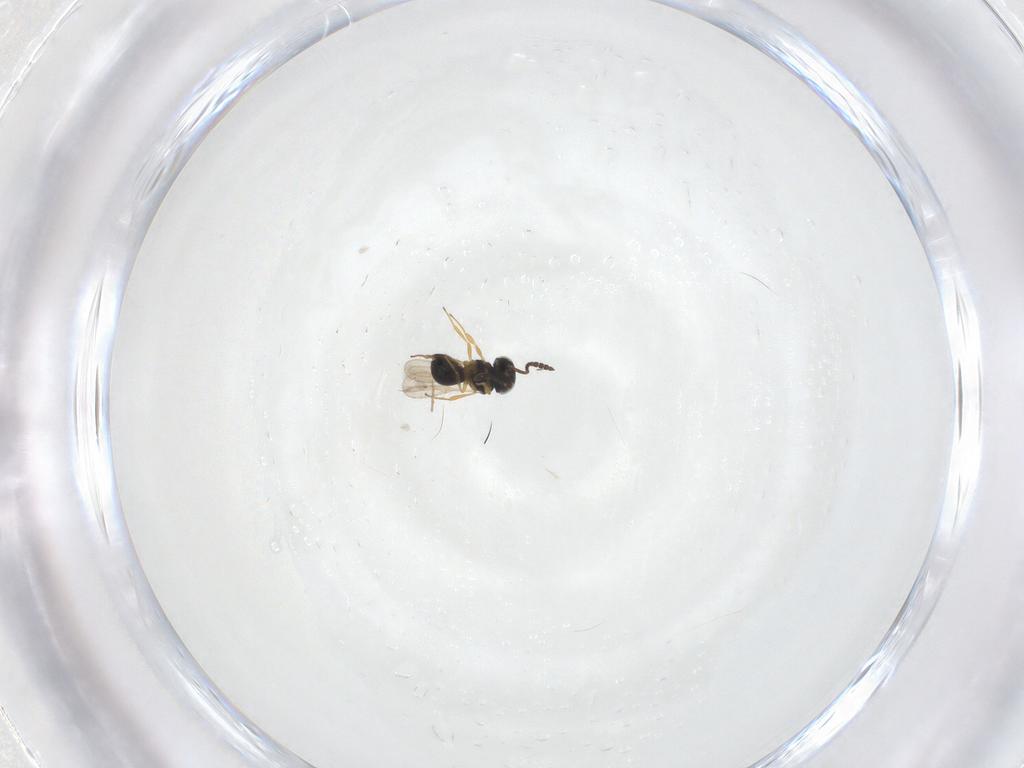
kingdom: Animalia
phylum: Arthropoda
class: Insecta
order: Hymenoptera
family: Scelionidae
